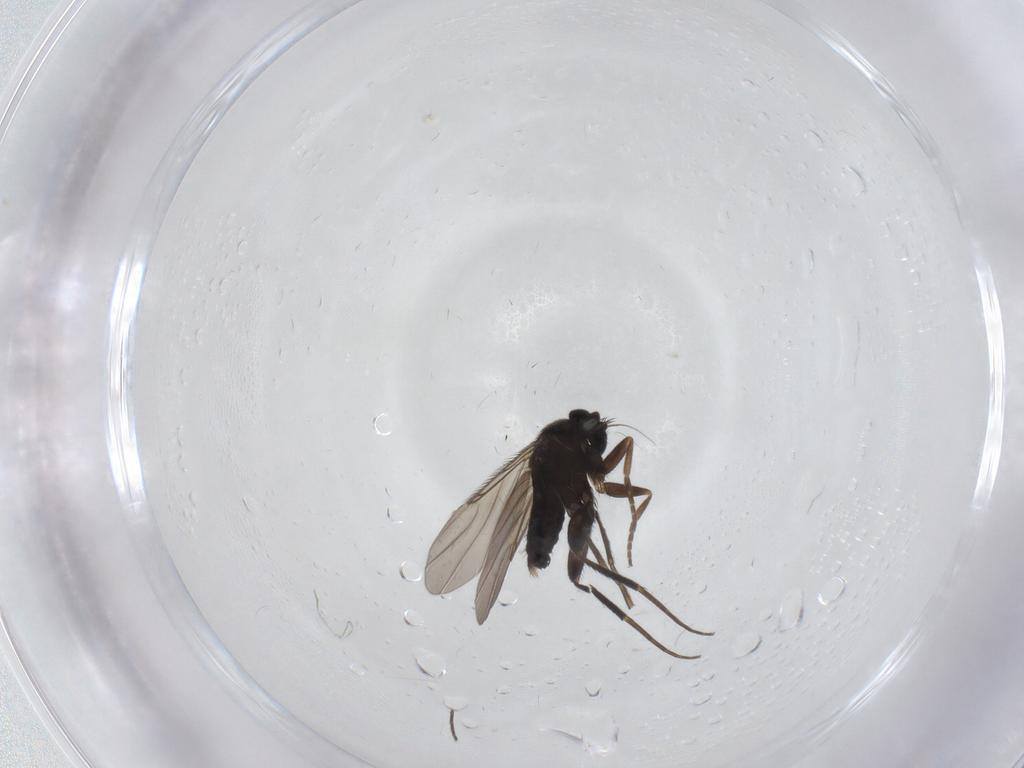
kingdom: Animalia
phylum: Arthropoda
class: Insecta
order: Diptera
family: Phoridae
